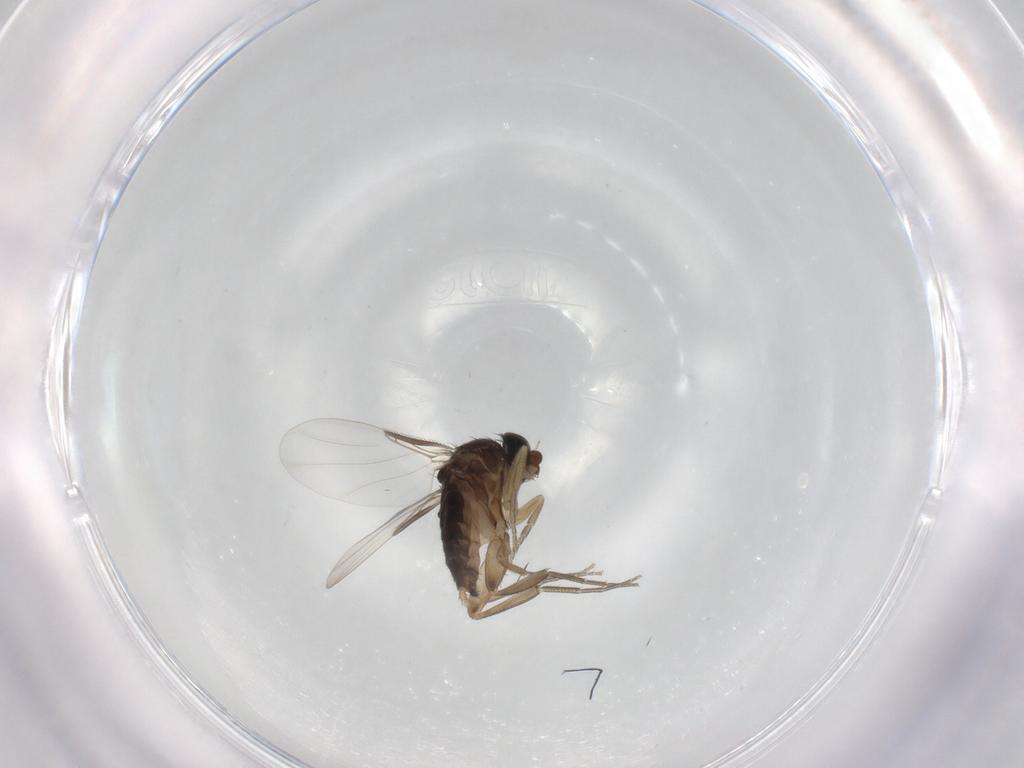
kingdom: Animalia
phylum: Arthropoda
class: Insecta
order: Diptera
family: Phoridae
